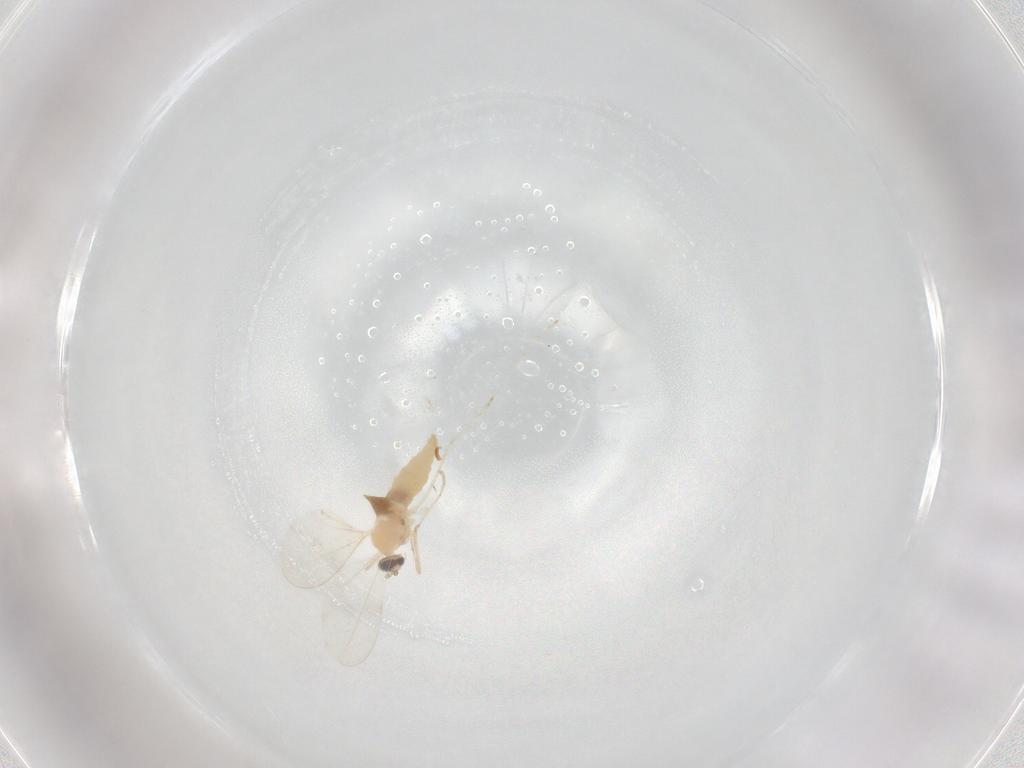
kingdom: Animalia
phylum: Arthropoda
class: Insecta
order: Diptera
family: Cecidomyiidae
